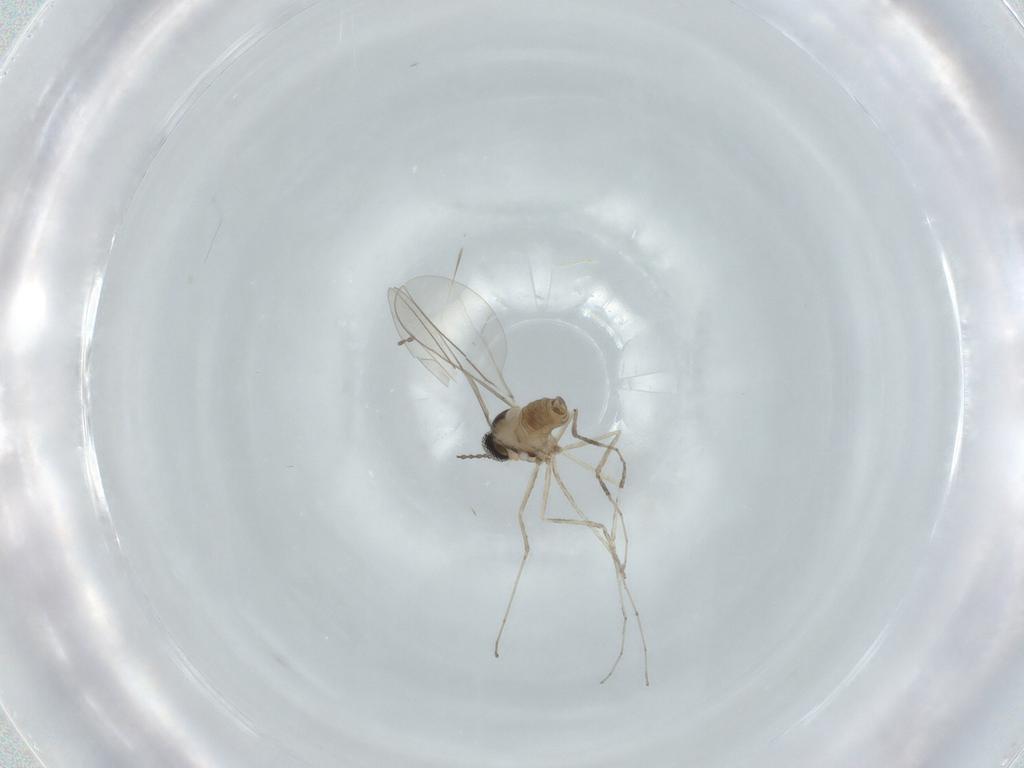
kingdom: Animalia
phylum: Arthropoda
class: Insecta
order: Diptera
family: Cecidomyiidae
